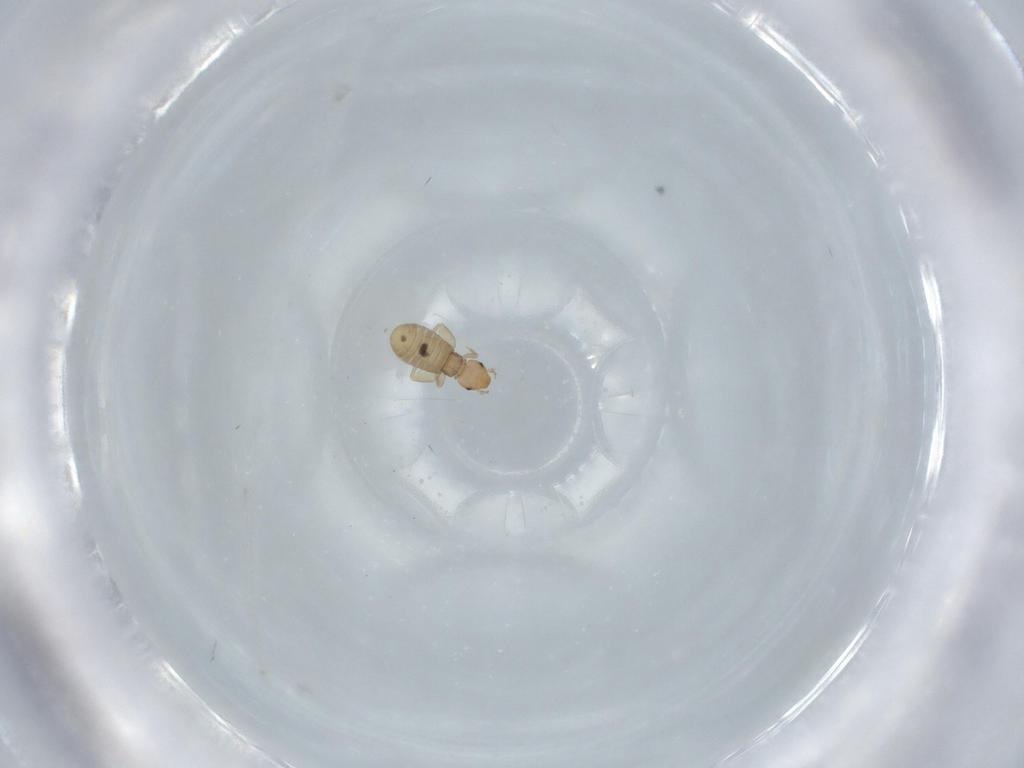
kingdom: Animalia
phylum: Arthropoda
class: Insecta
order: Psocodea
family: Liposcelididae
